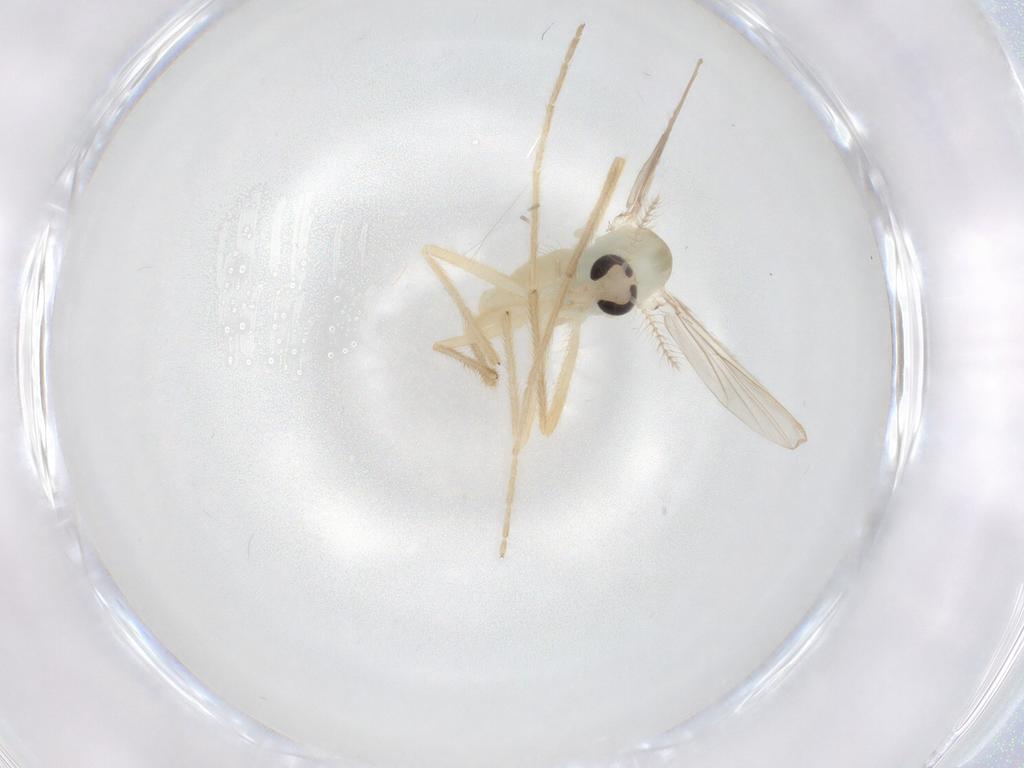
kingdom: Animalia
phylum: Arthropoda
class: Insecta
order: Diptera
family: Chironomidae
